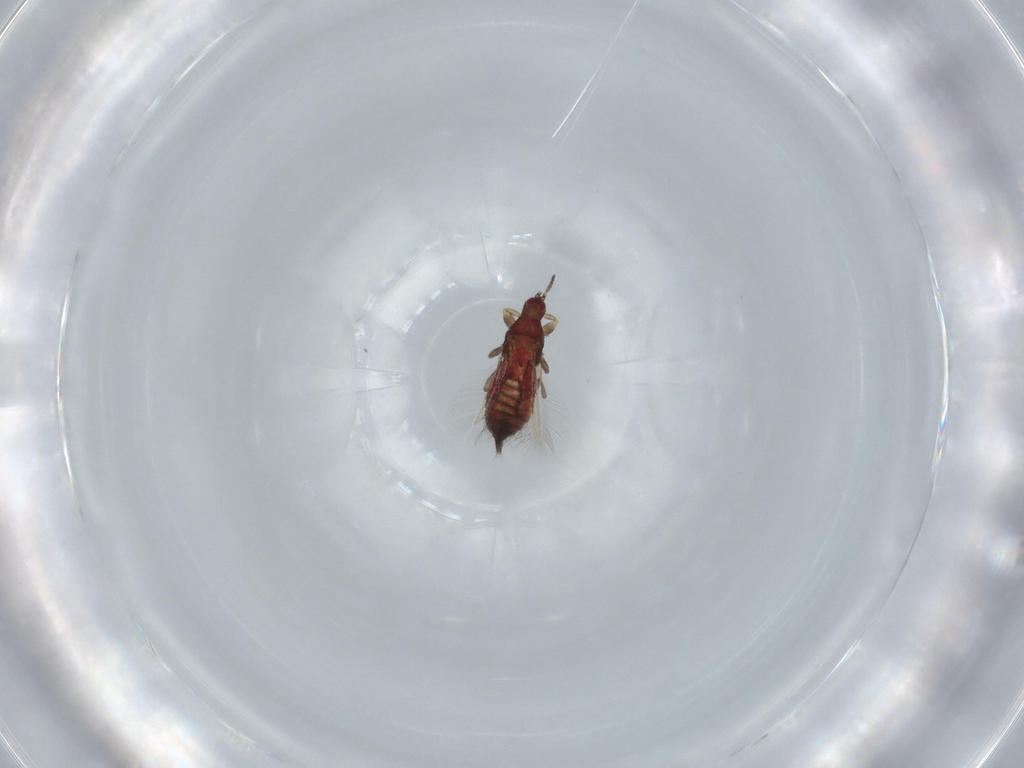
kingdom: Animalia
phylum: Arthropoda
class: Insecta
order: Thysanoptera
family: Phlaeothripidae
